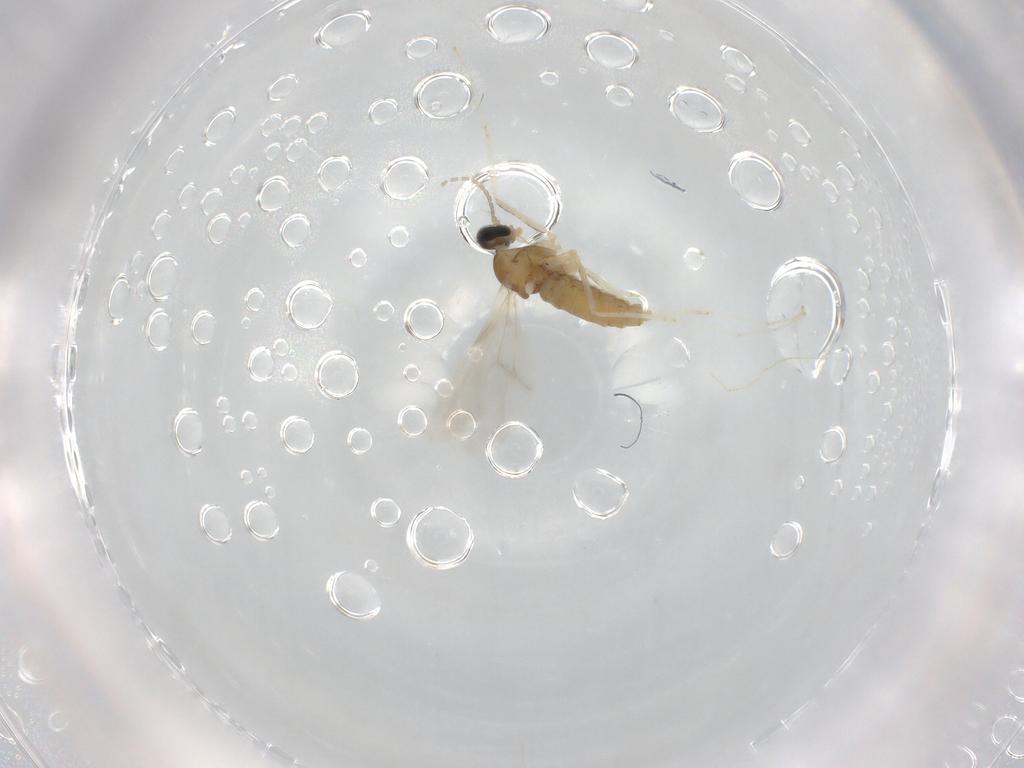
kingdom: Animalia
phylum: Arthropoda
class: Insecta
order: Diptera
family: Cecidomyiidae
